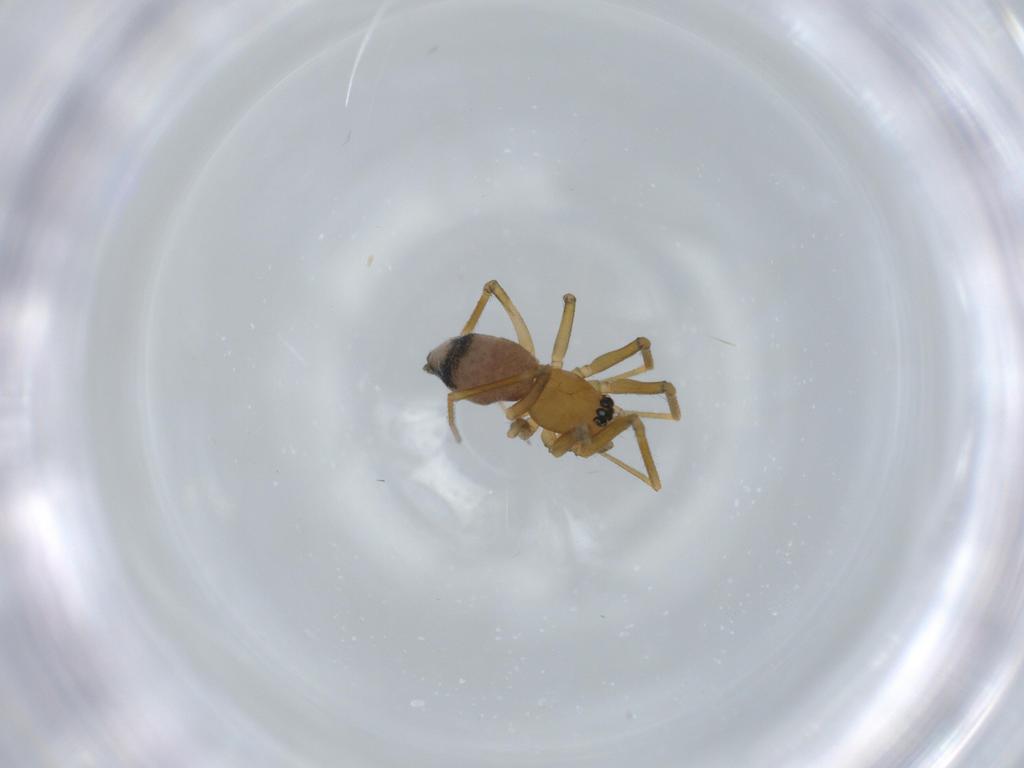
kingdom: Animalia
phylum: Arthropoda
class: Arachnida
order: Araneae
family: Linyphiidae
